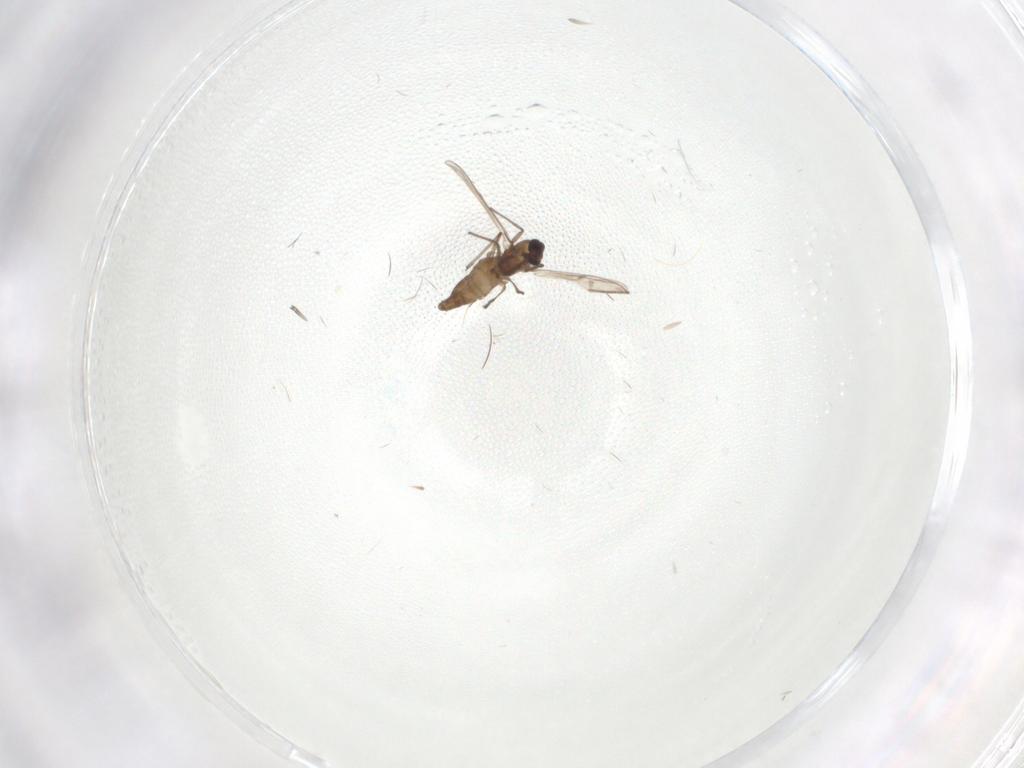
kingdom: Animalia
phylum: Arthropoda
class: Insecta
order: Diptera
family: Chironomidae
